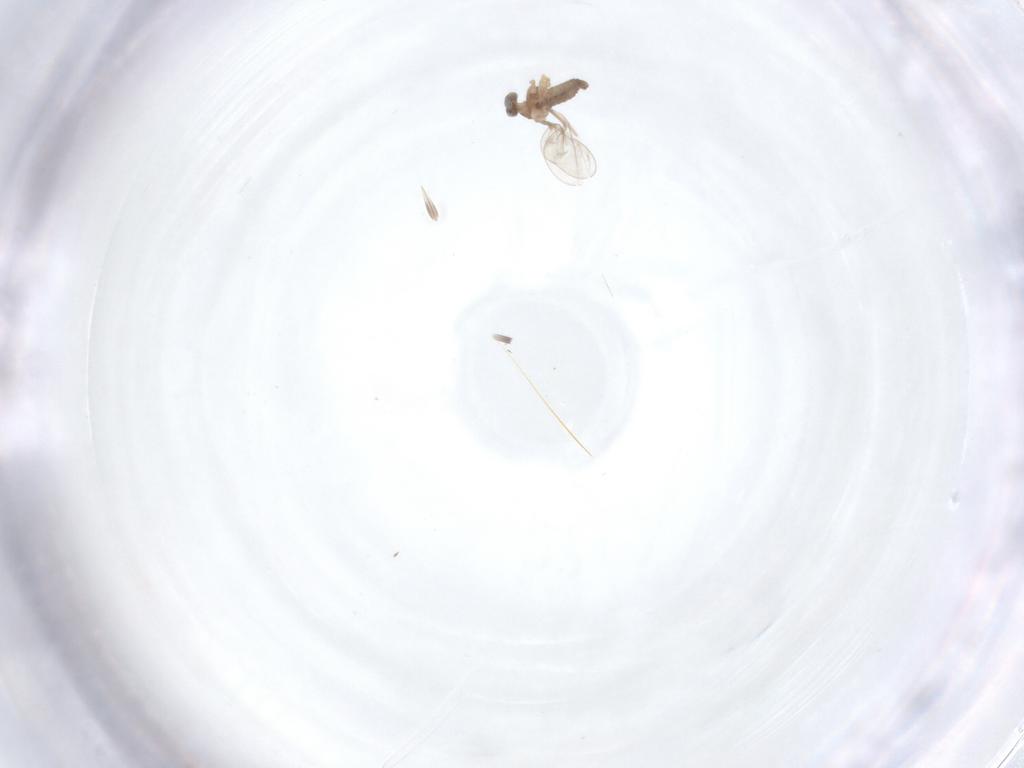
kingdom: Animalia
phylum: Arthropoda
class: Insecta
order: Diptera
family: Cecidomyiidae
